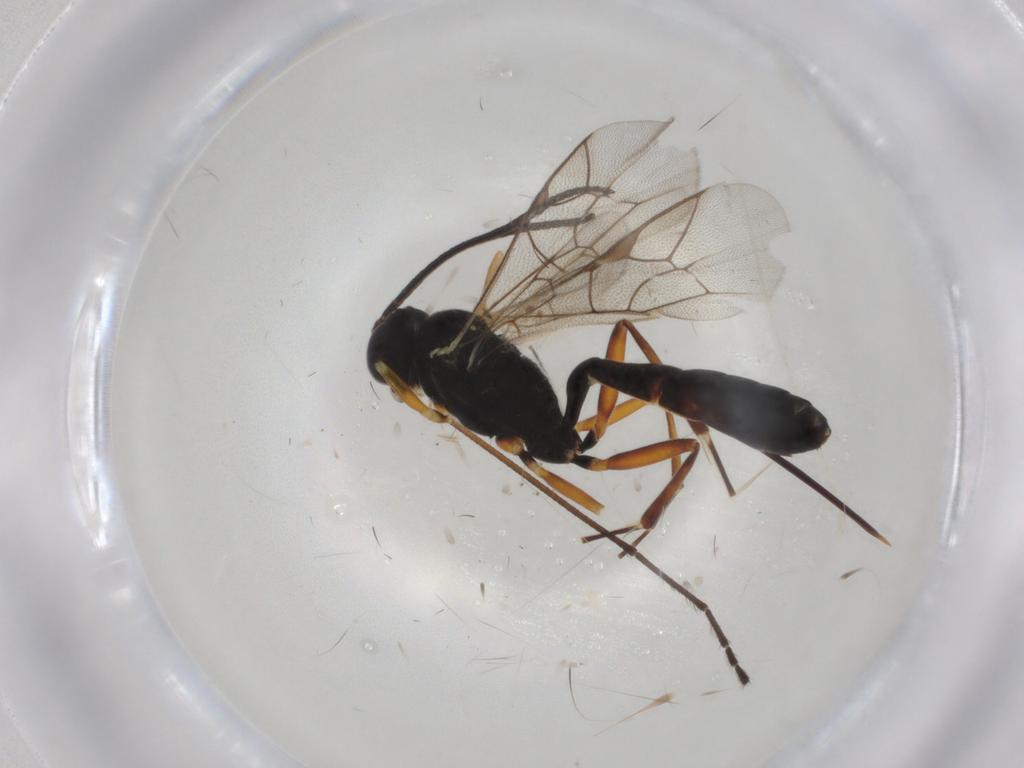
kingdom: Animalia
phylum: Arthropoda
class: Insecta
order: Hymenoptera
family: Ichneumonidae
